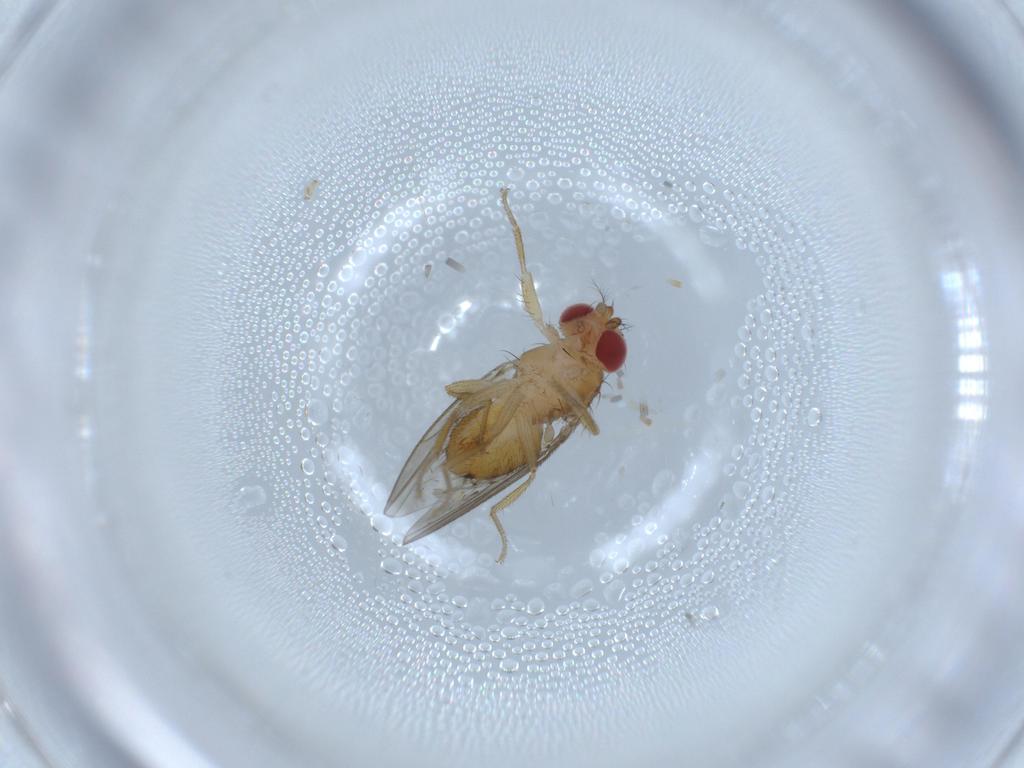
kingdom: Animalia
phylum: Arthropoda
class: Insecta
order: Diptera
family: Drosophilidae
